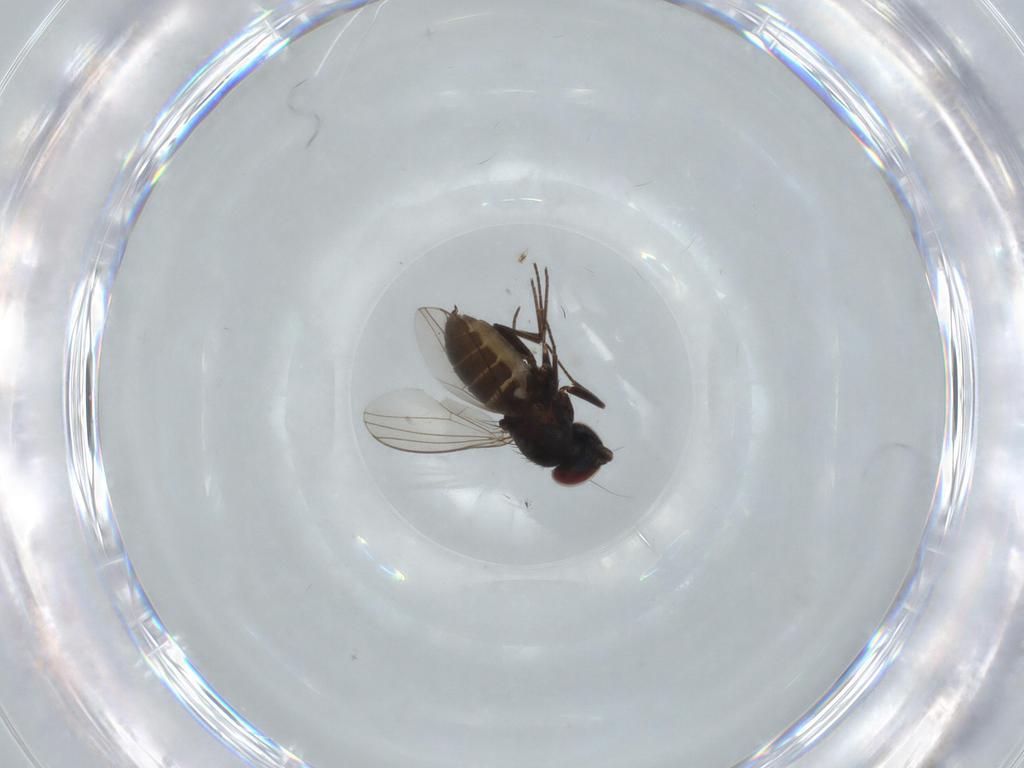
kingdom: Animalia
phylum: Arthropoda
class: Insecta
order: Diptera
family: Dolichopodidae
